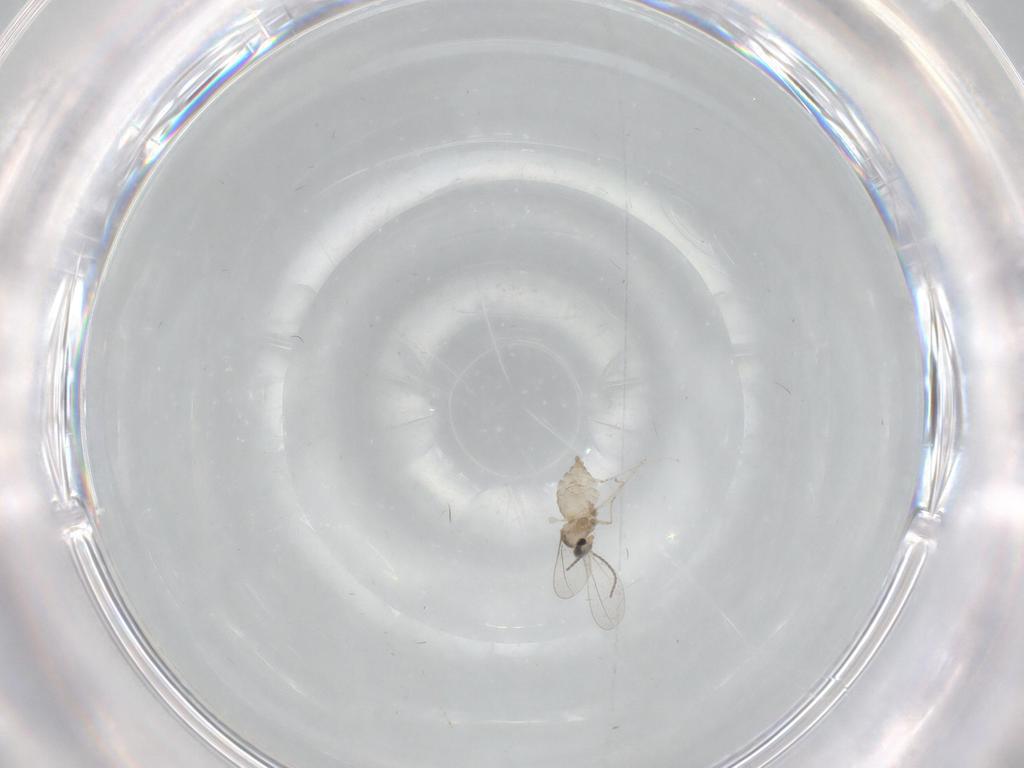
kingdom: Animalia
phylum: Arthropoda
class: Insecta
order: Diptera
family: Cecidomyiidae
